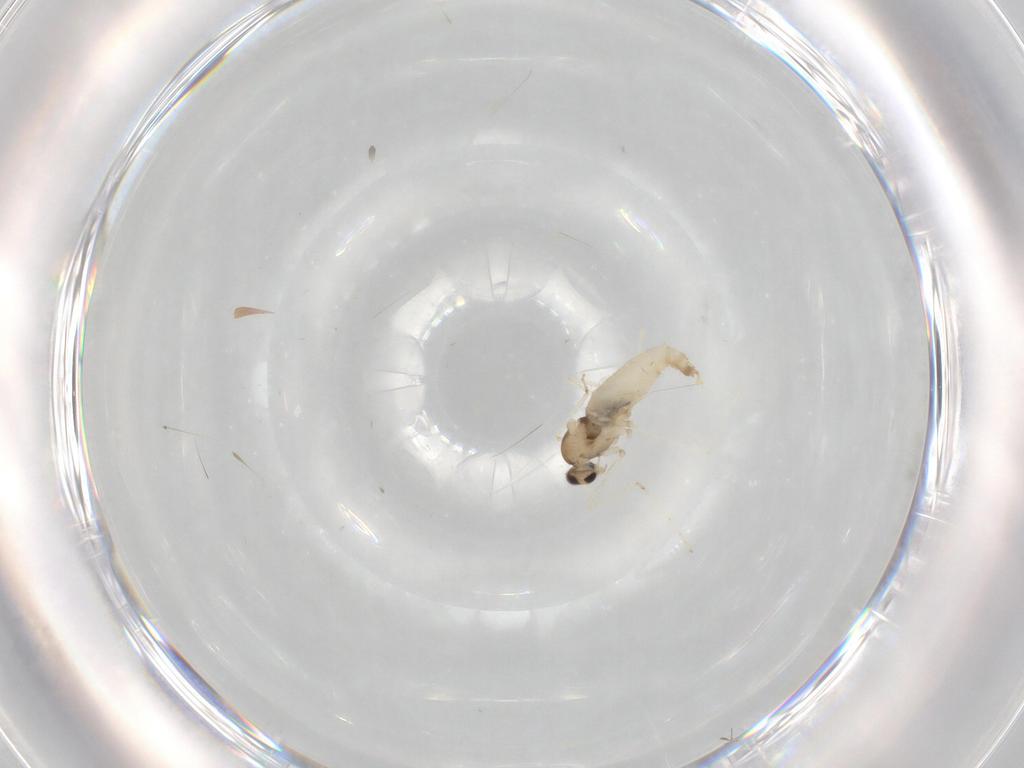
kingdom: Animalia
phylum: Arthropoda
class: Insecta
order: Diptera
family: Cecidomyiidae
